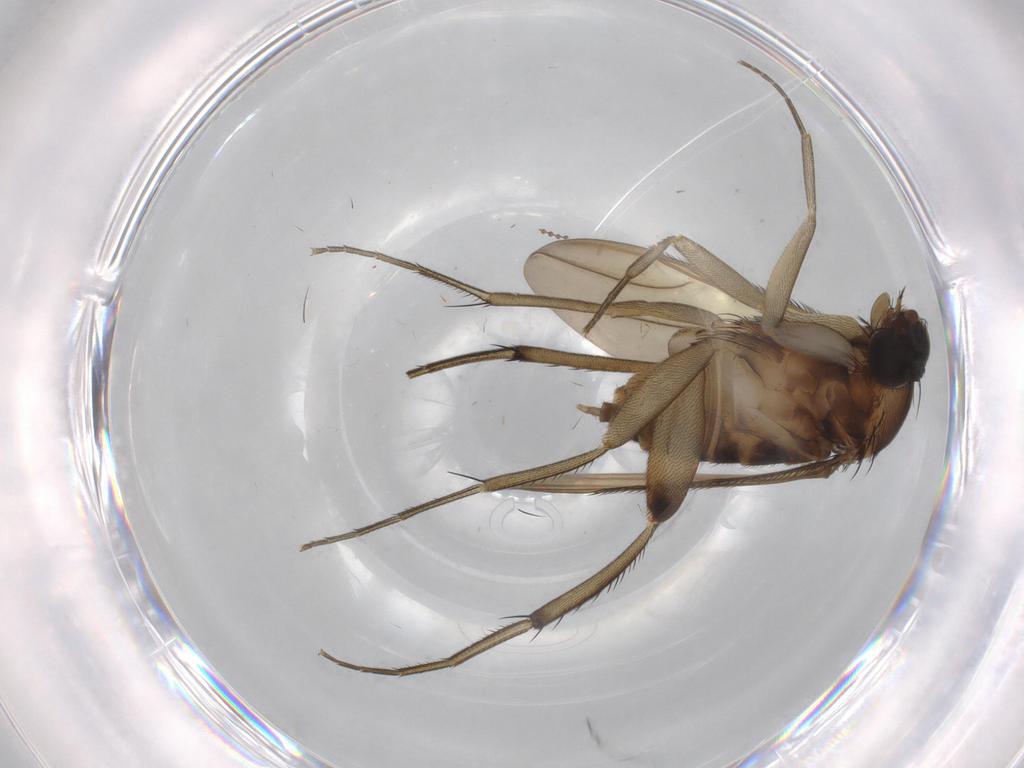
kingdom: Animalia
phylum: Arthropoda
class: Insecta
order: Diptera
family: Phoridae
